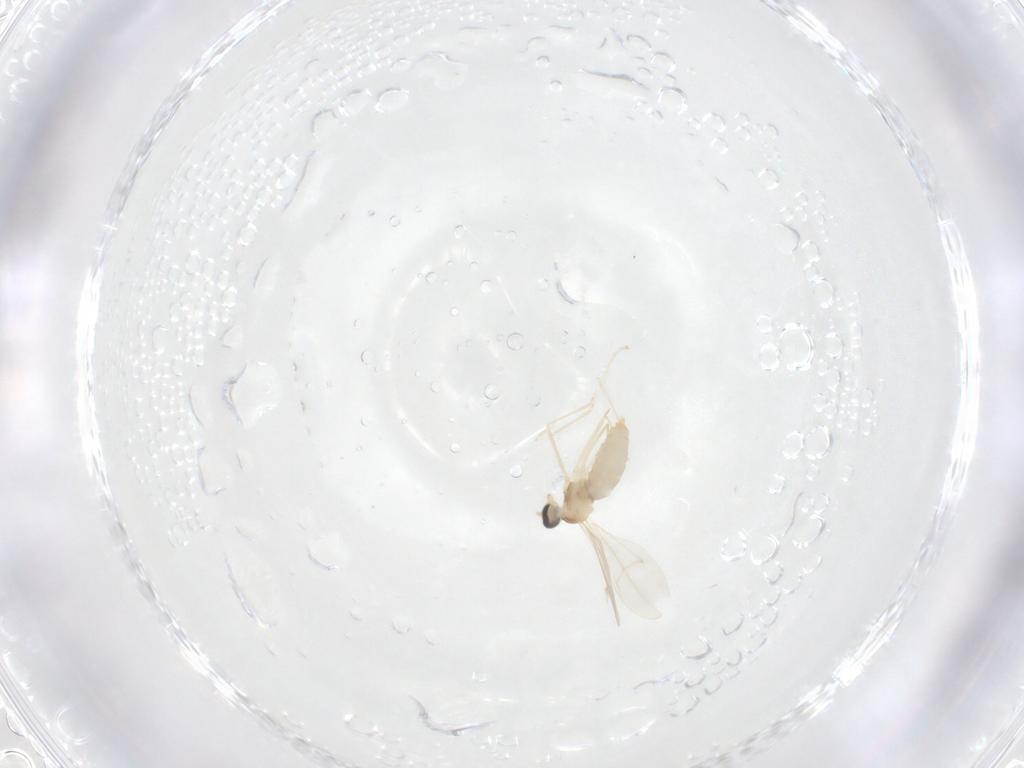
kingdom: Animalia
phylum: Arthropoda
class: Insecta
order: Diptera
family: Cecidomyiidae
